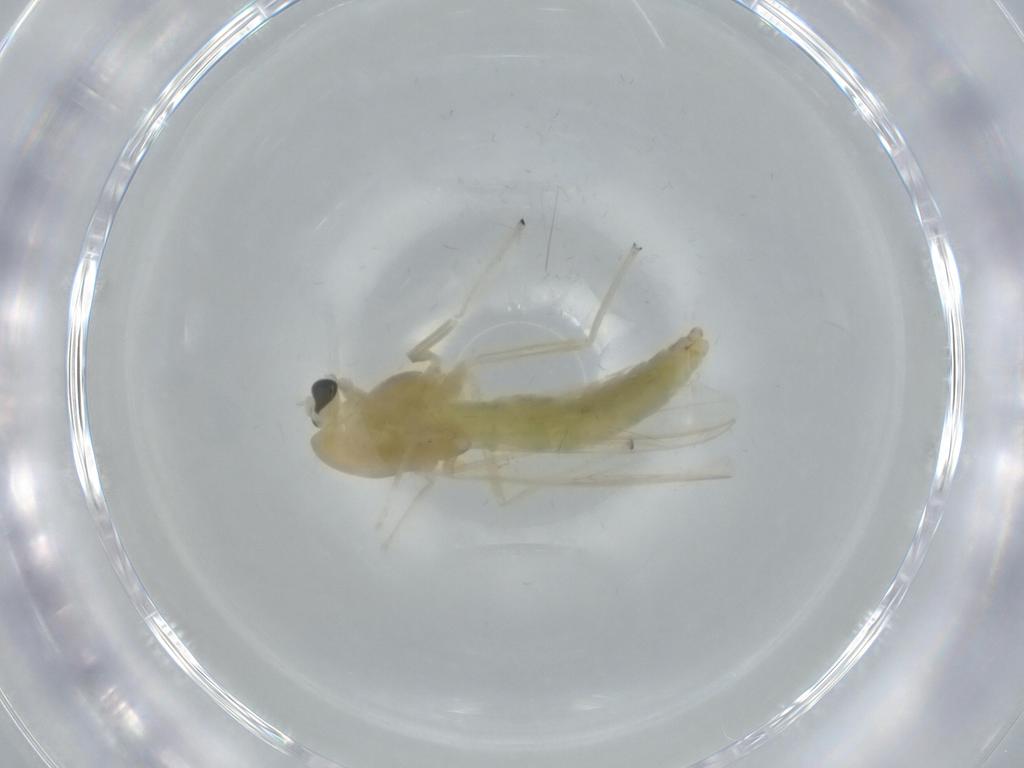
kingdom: Animalia
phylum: Arthropoda
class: Insecta
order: Diptera
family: Chironomidae
